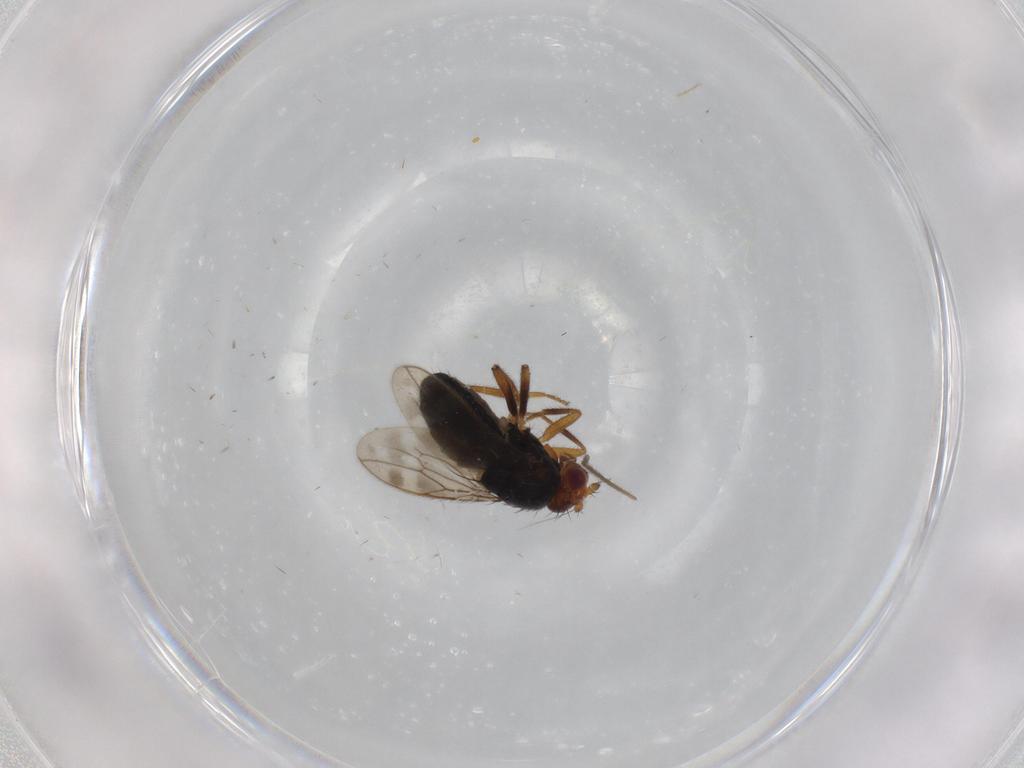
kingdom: Animalia
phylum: Arthropoda
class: Insecta
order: Diptera
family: Sphaeroceridae
